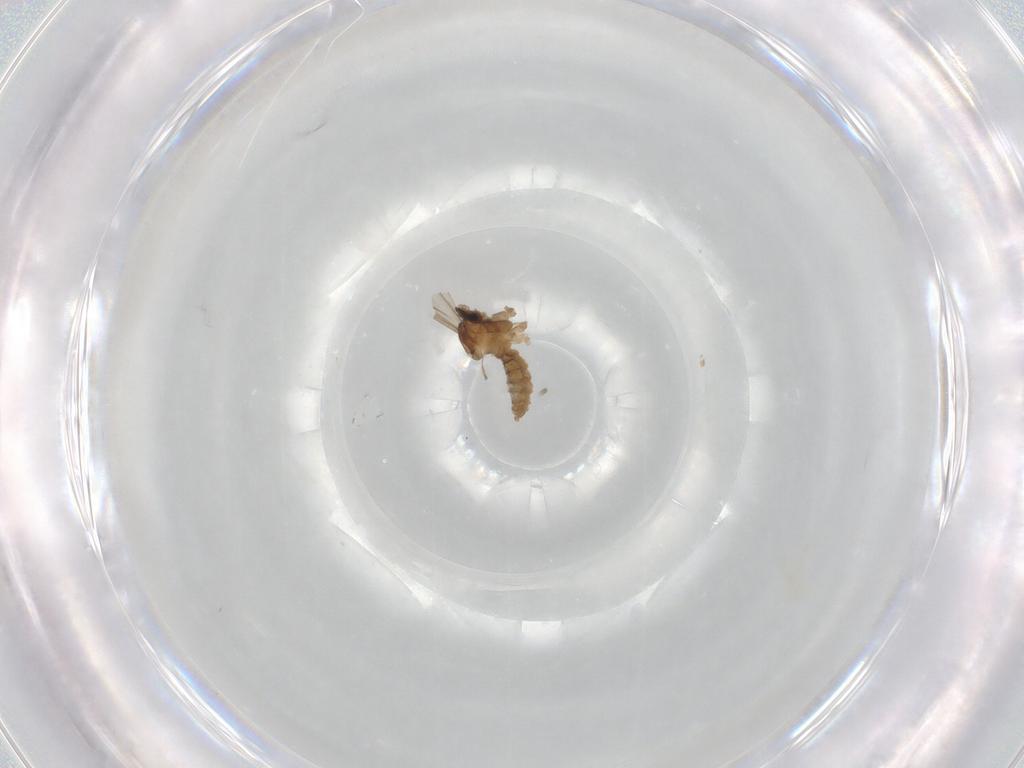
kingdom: Animalia
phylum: Arthropoda
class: Insecta
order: Diptera
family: Cecidomyiidae
